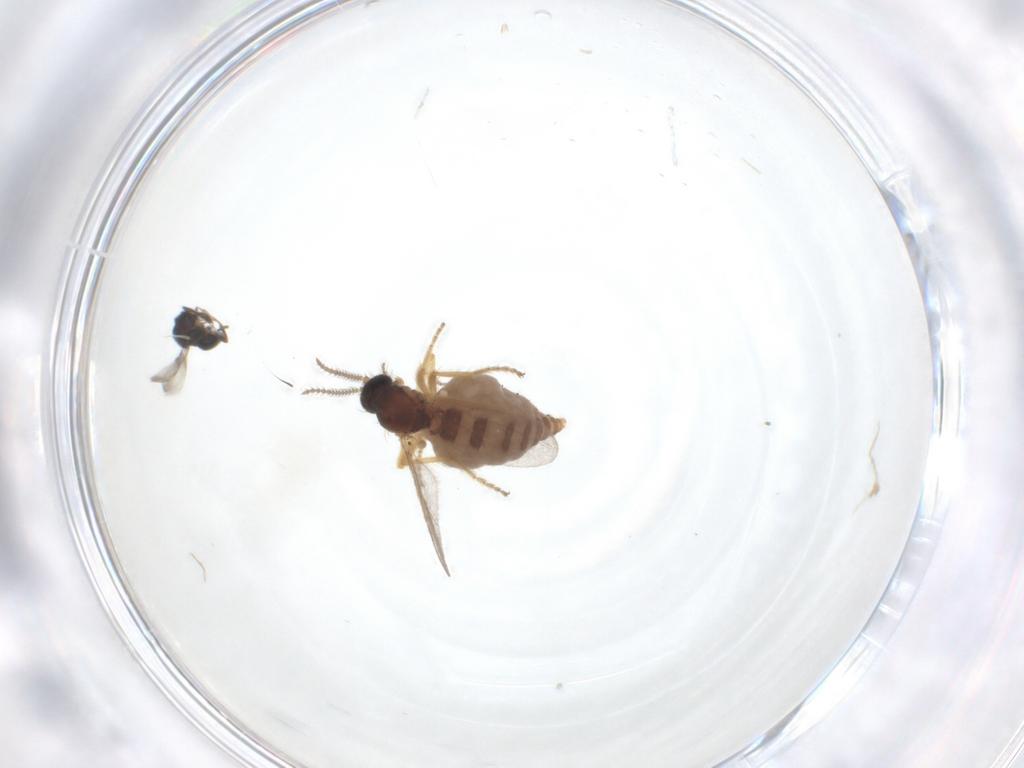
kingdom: Animalia
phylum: Arthropoda
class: Insecta
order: Diptera
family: Ceratopogonidae
